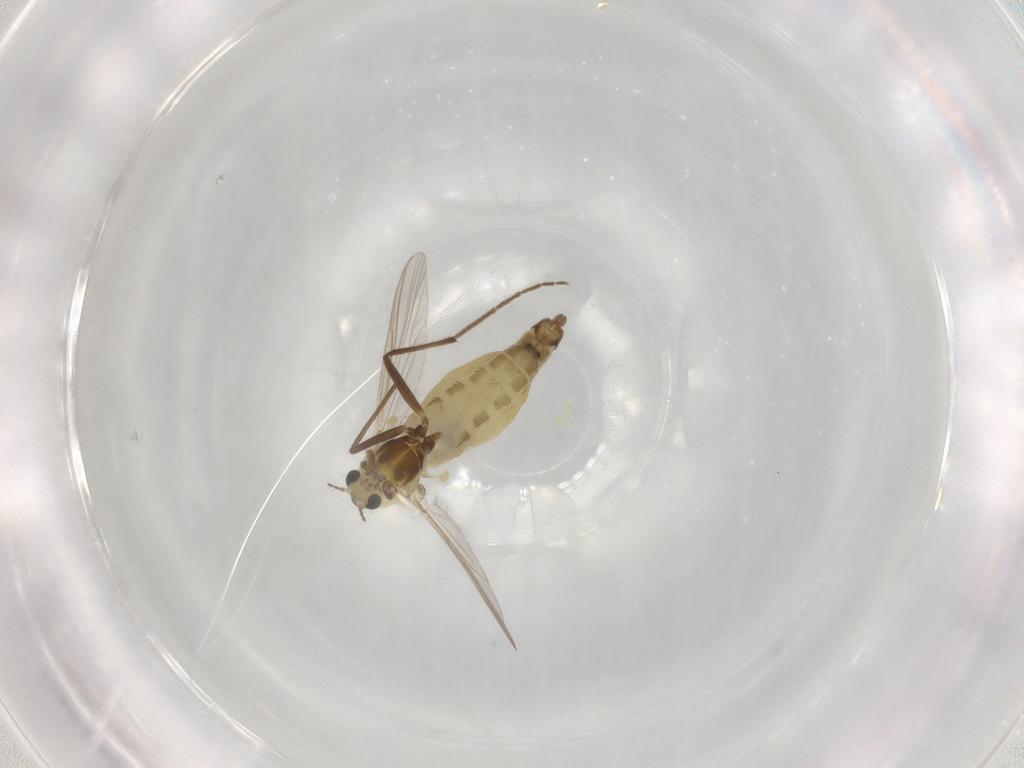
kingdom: Animalia
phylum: Arthropoda
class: Insecta
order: Diptera
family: Chironomidae
